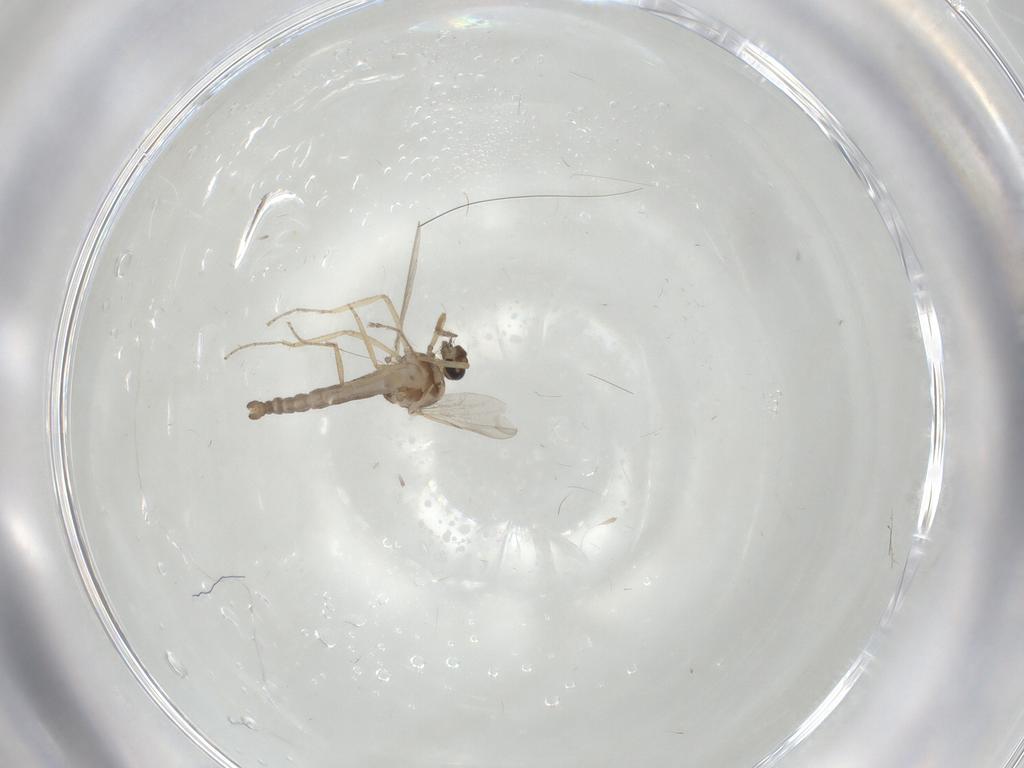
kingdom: Animalia
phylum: Arthropoda
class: Insecta
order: Diptera
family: Ceratopogonidae
